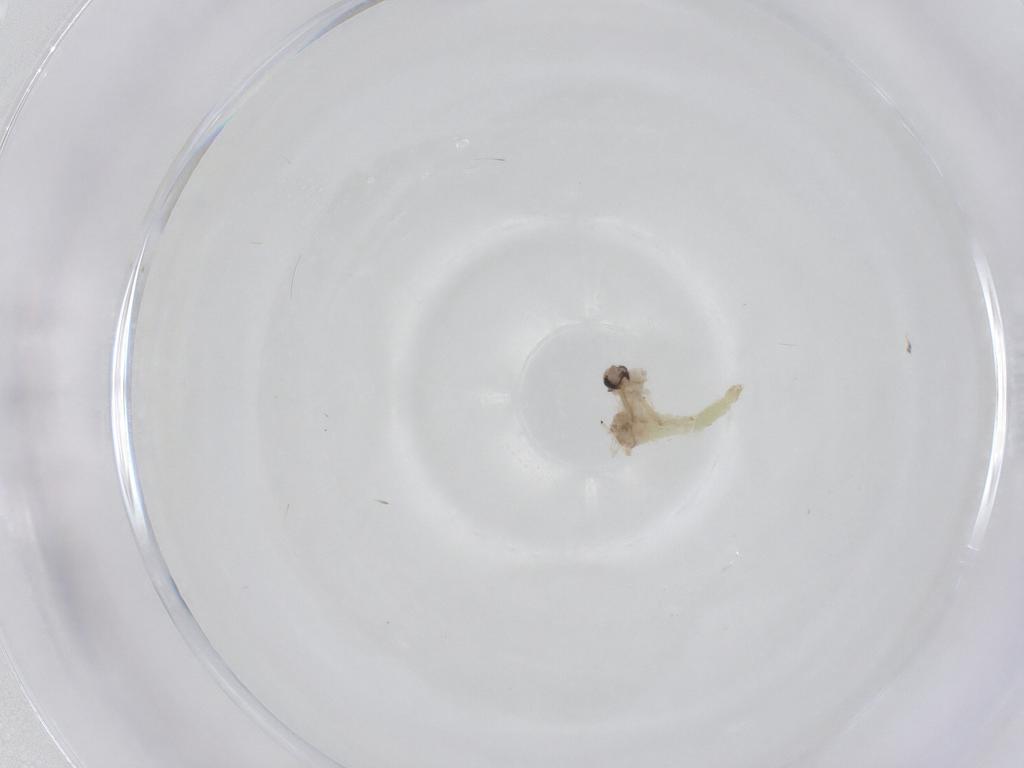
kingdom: Animalia
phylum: Arthropoda
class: Insecta
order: Diptera
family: Chironomidae
